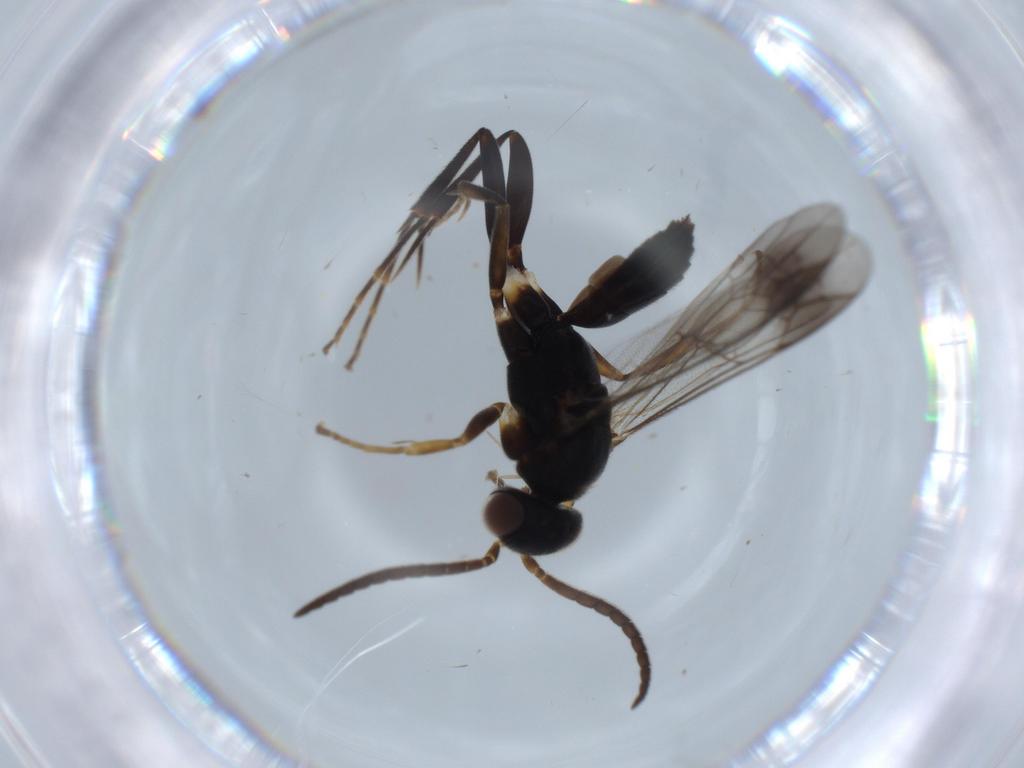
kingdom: Animalia
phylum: Arthropoda
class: Insecta
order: Hymenoptera
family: Pompilidae
